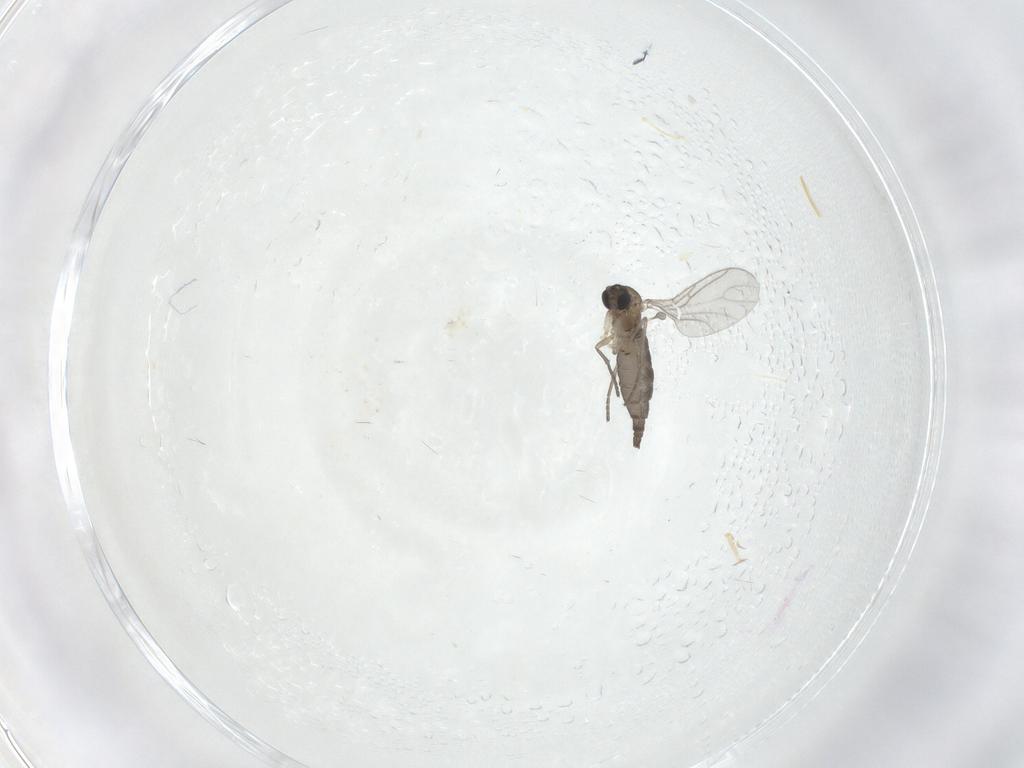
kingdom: Animalia
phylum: Arthropoda
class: Insecta
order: Diptera
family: Sciaridae
